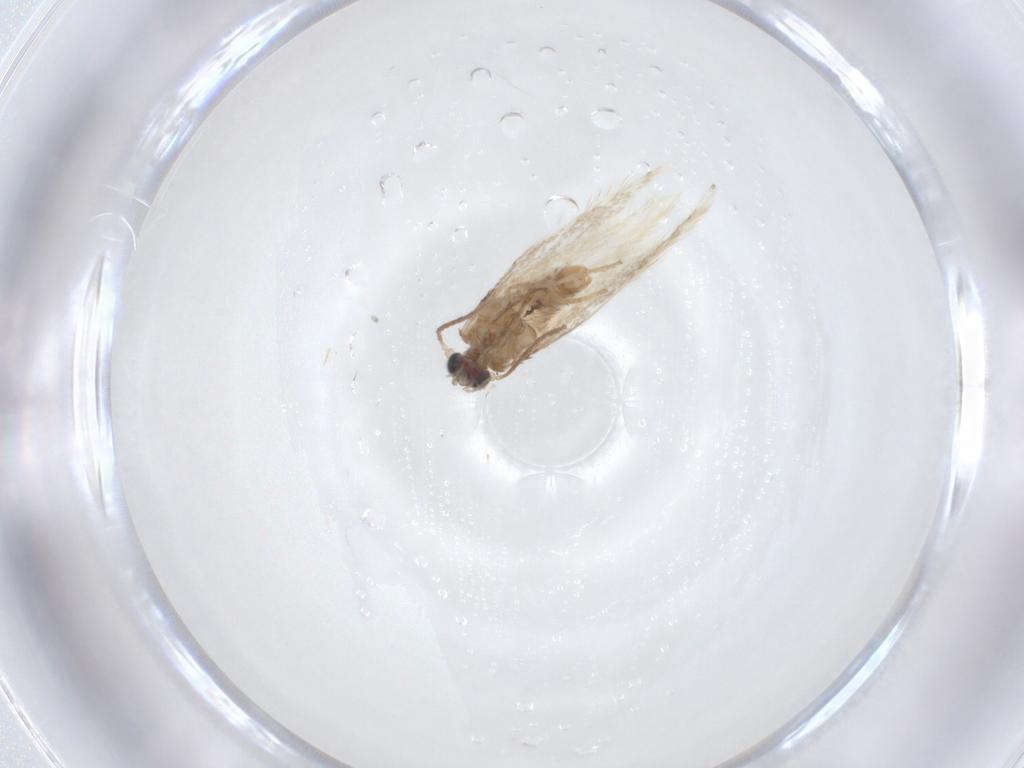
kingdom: Animalia
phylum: Arthropoda
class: Insecta
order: Lepidoptera
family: Nepticulidae
